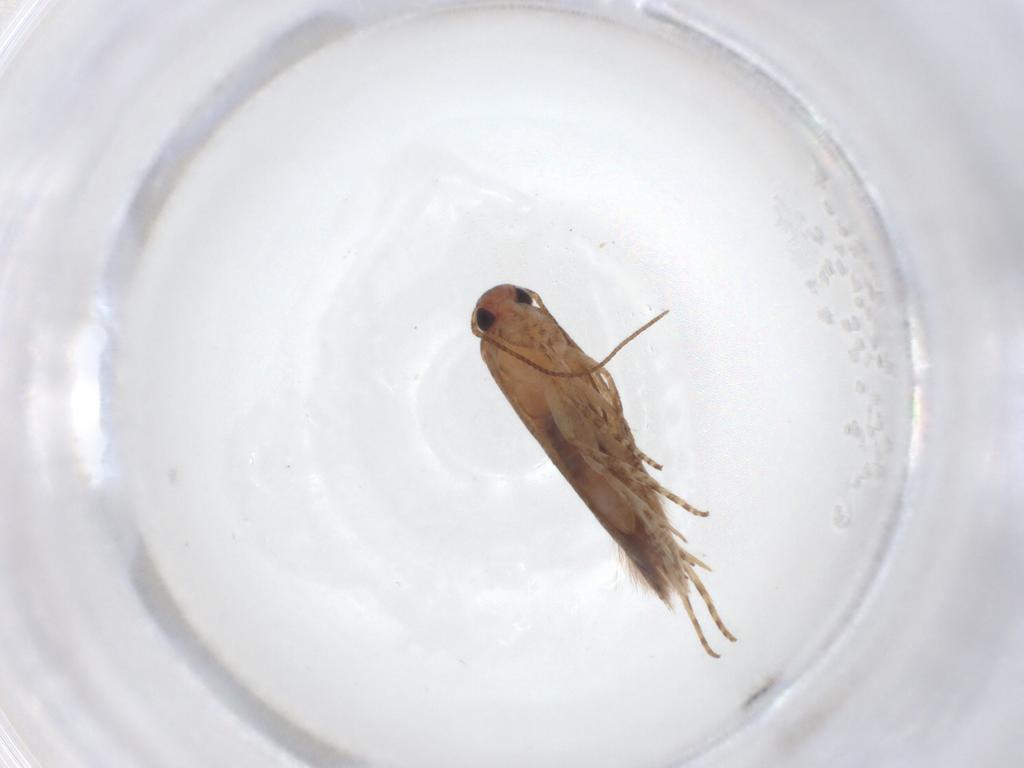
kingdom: Animalia
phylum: Arthropoda
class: Insecta
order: Lepidoptera
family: Gelechiidae
